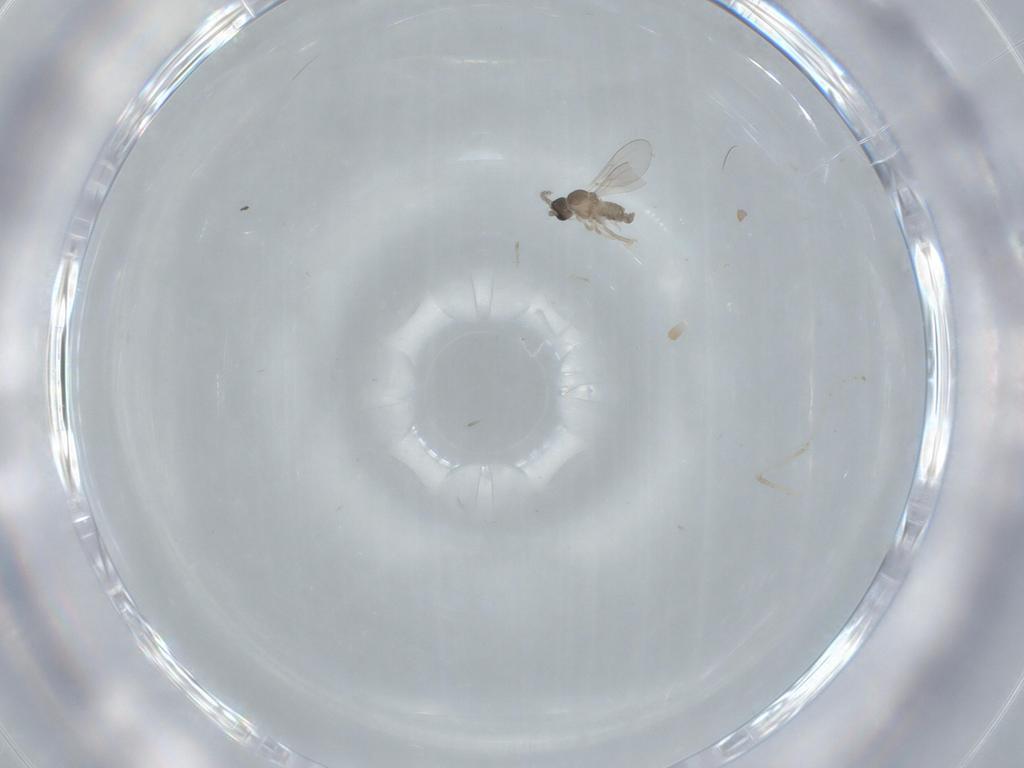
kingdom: Animalia
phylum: Arthropoda
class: Insecta
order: Diptera
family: Cecidomyiidae
